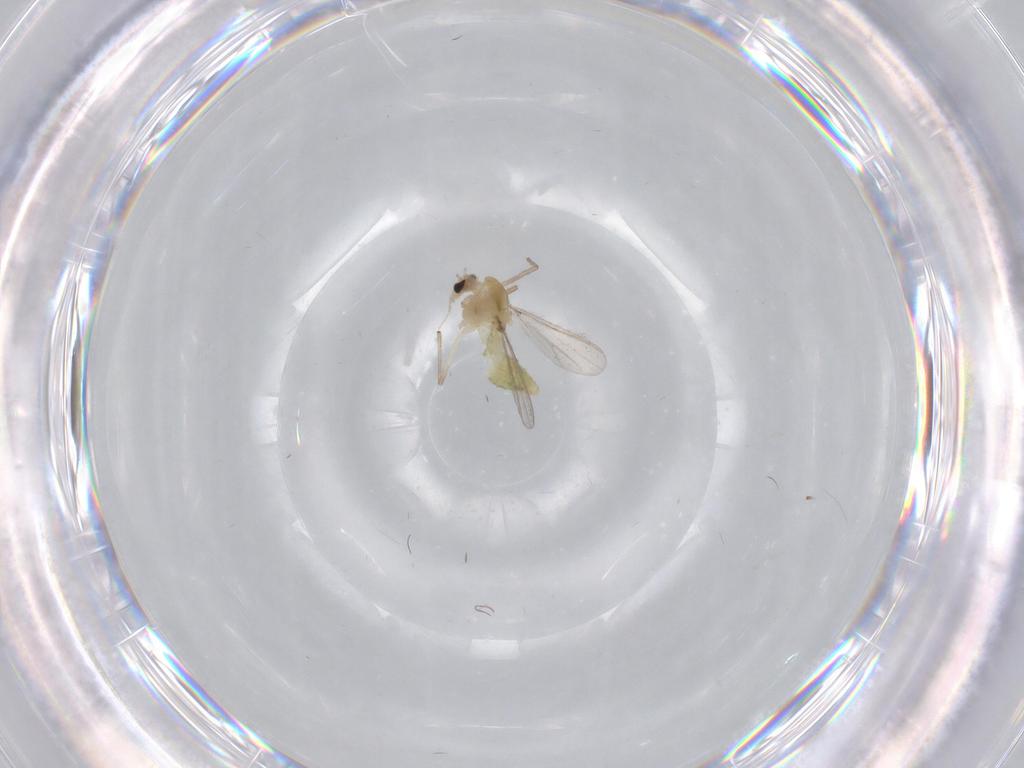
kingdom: Animalia
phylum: Arthropoda
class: Insecta
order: Diptera
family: Chironomidae
